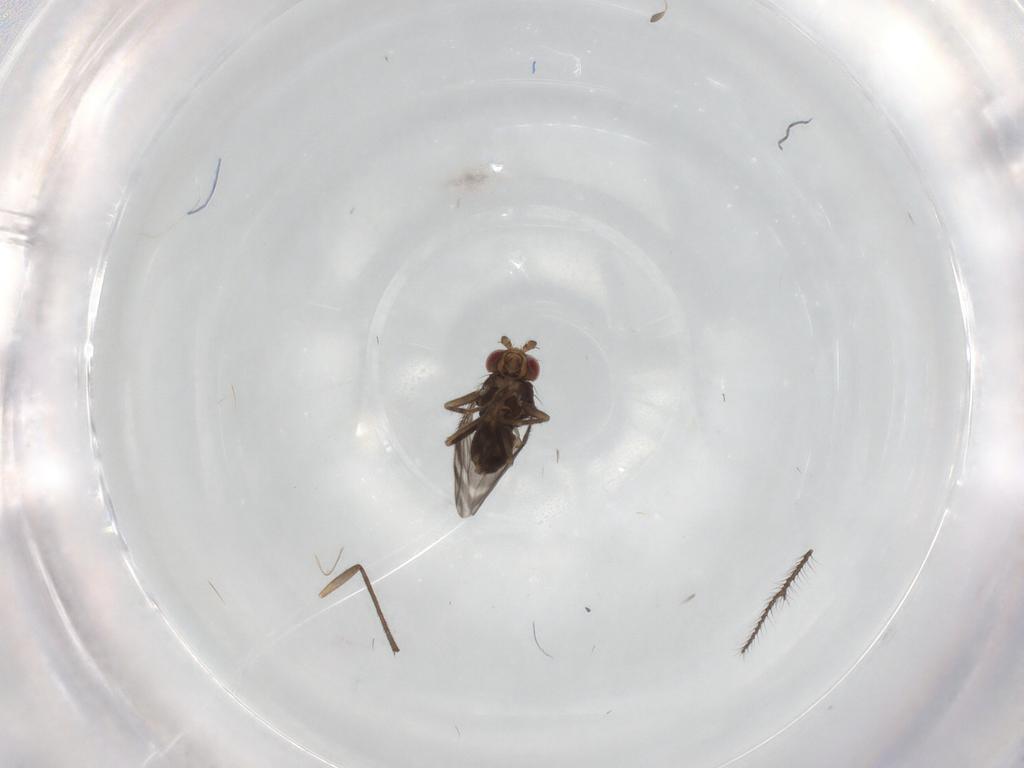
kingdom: Animalia
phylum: Arthropoda
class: Insecta
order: Diptera
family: Sphaeroceridae
